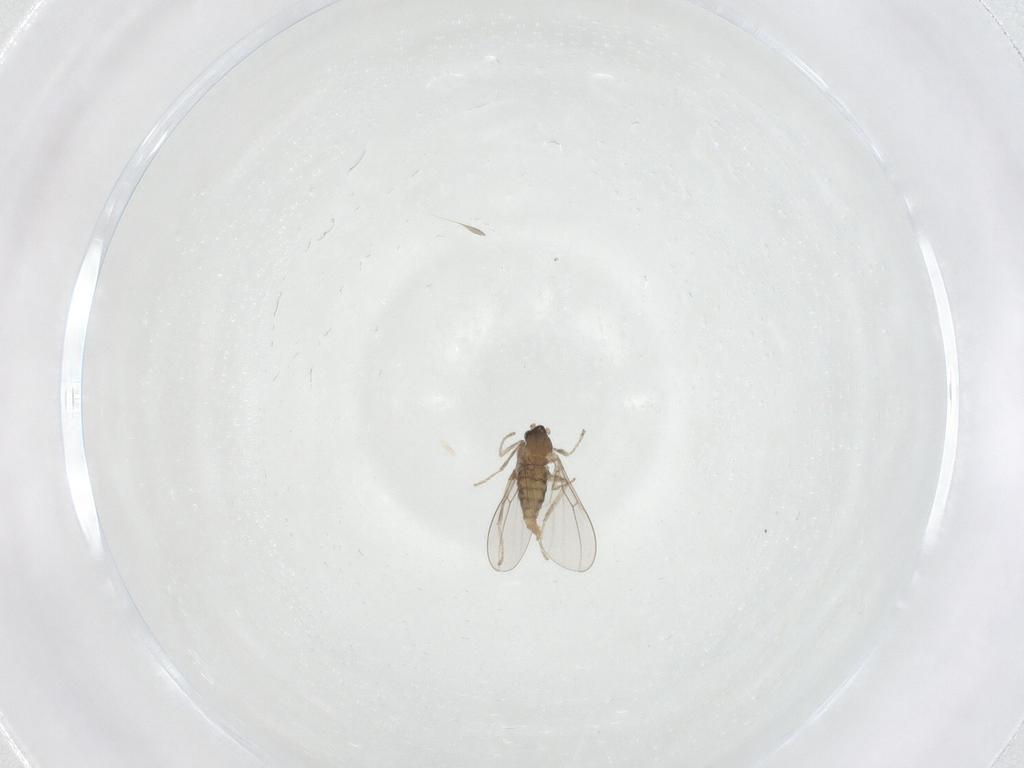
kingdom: Animalia
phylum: Arthropoda
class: Insecta
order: Diptera
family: Cecidomyiidae
